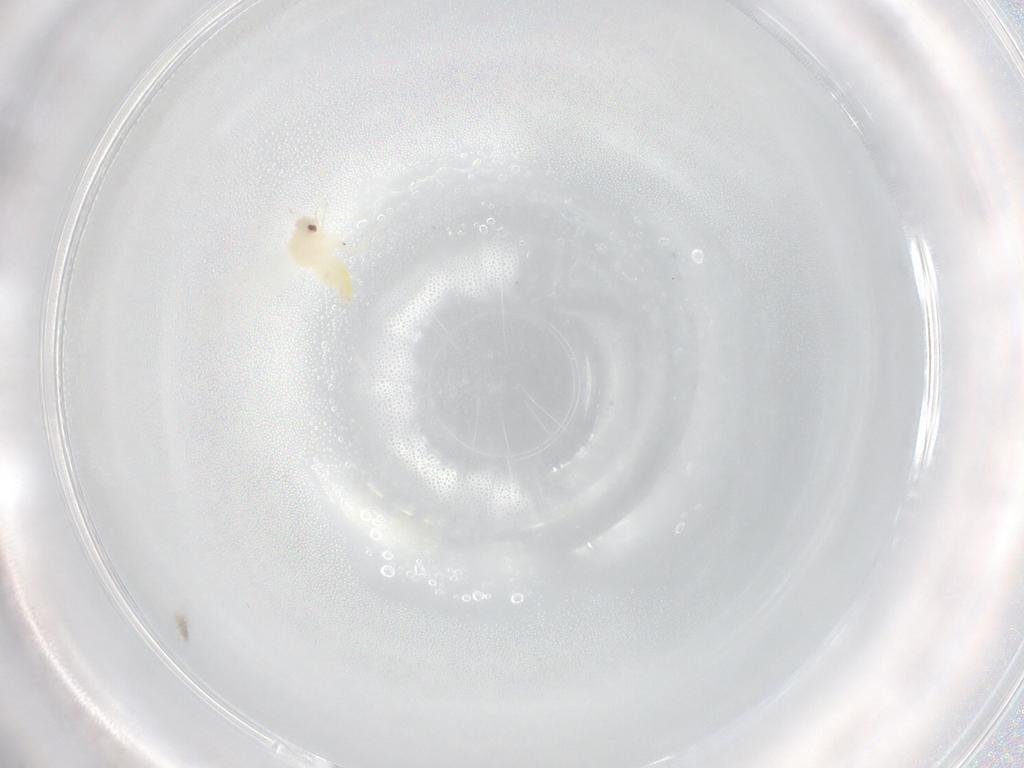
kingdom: Animalia
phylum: Arthropoda
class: Insecta
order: Hemiptera
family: Aleyrodidae
